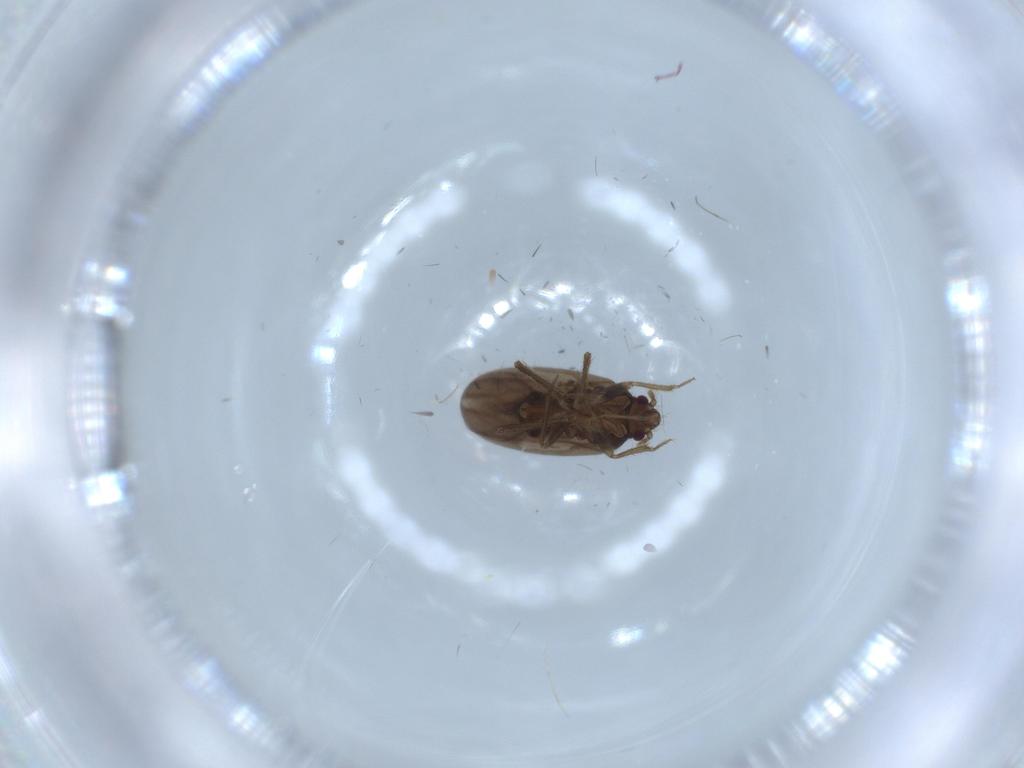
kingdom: Animalia
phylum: Arthropoda
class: Insecta
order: Hemiptera
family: Ceratocombidae
